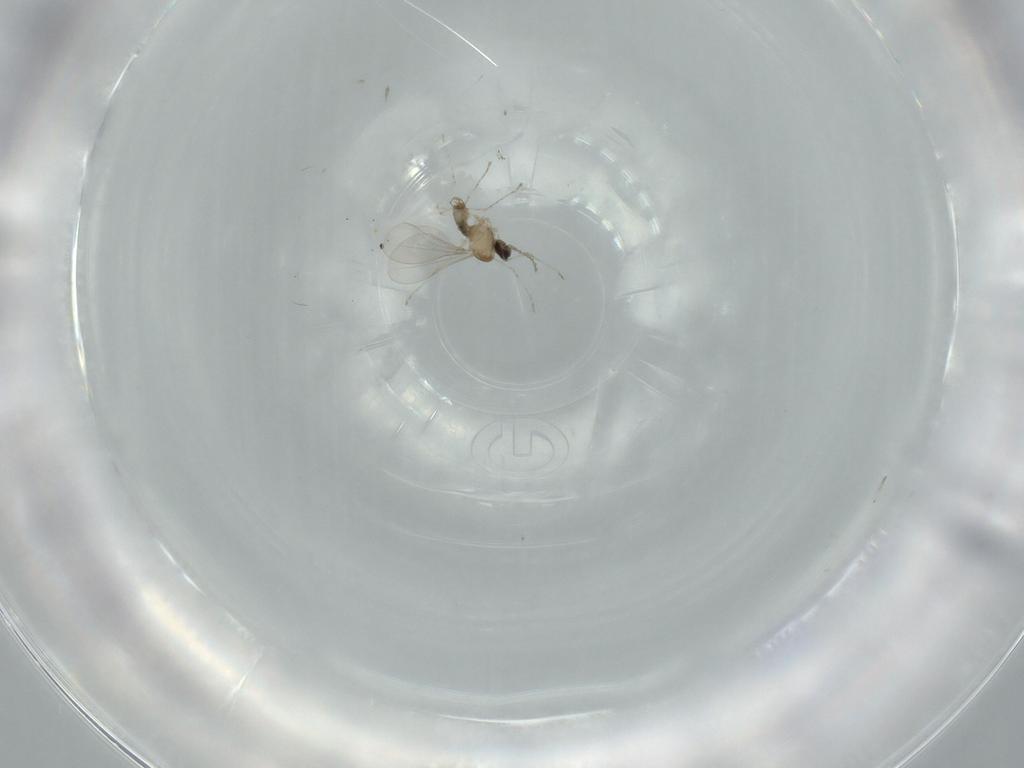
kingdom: Animalia
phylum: Arthropoda
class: Insecta
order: Diptera
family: Cecidomyiidae
